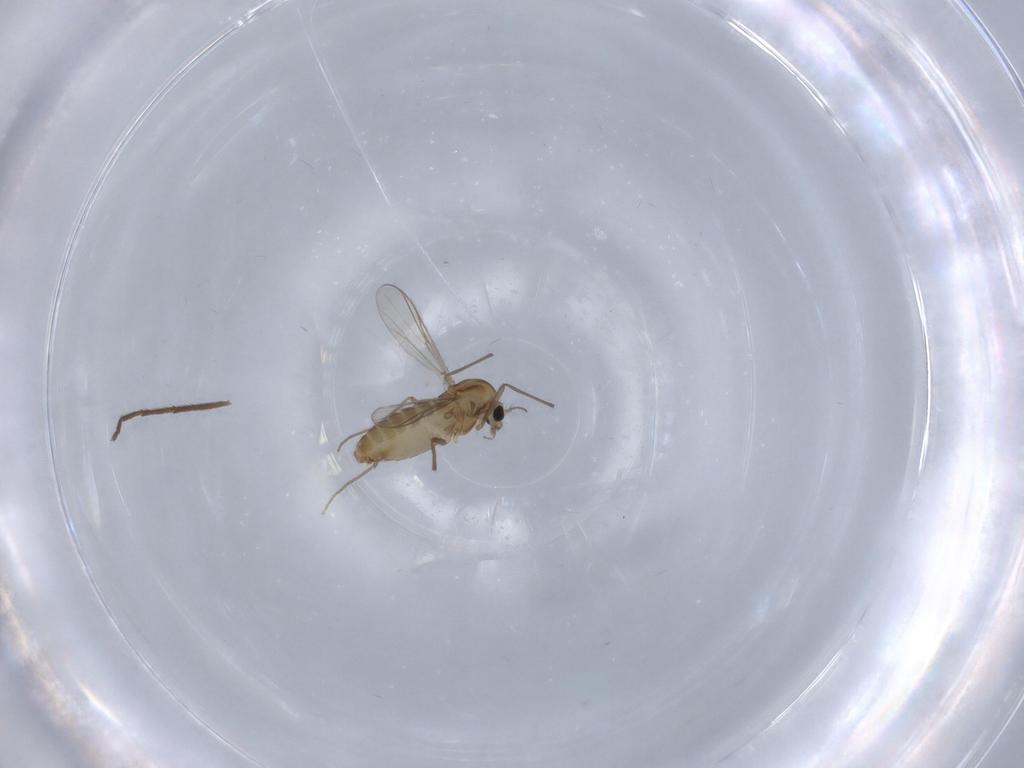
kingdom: Animalia
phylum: Arthropoda
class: Insecta
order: Diptera
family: Chironomidae
